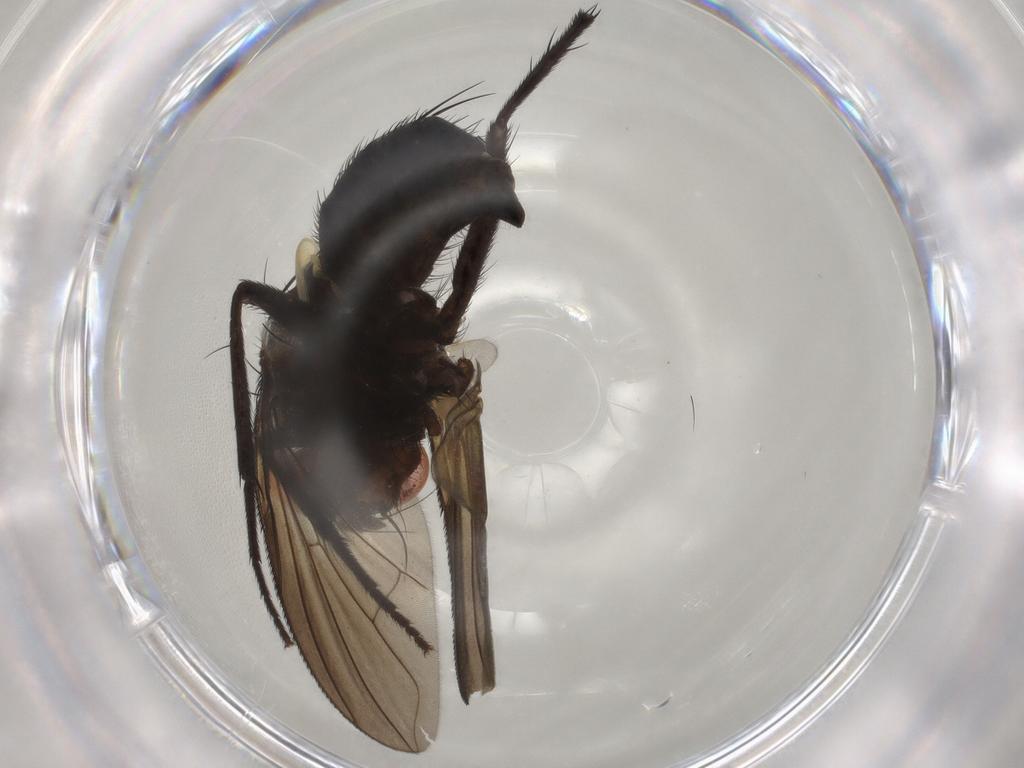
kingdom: Animalia
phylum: Arthropoda
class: Insecta
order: Diptera
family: Tachinidae
